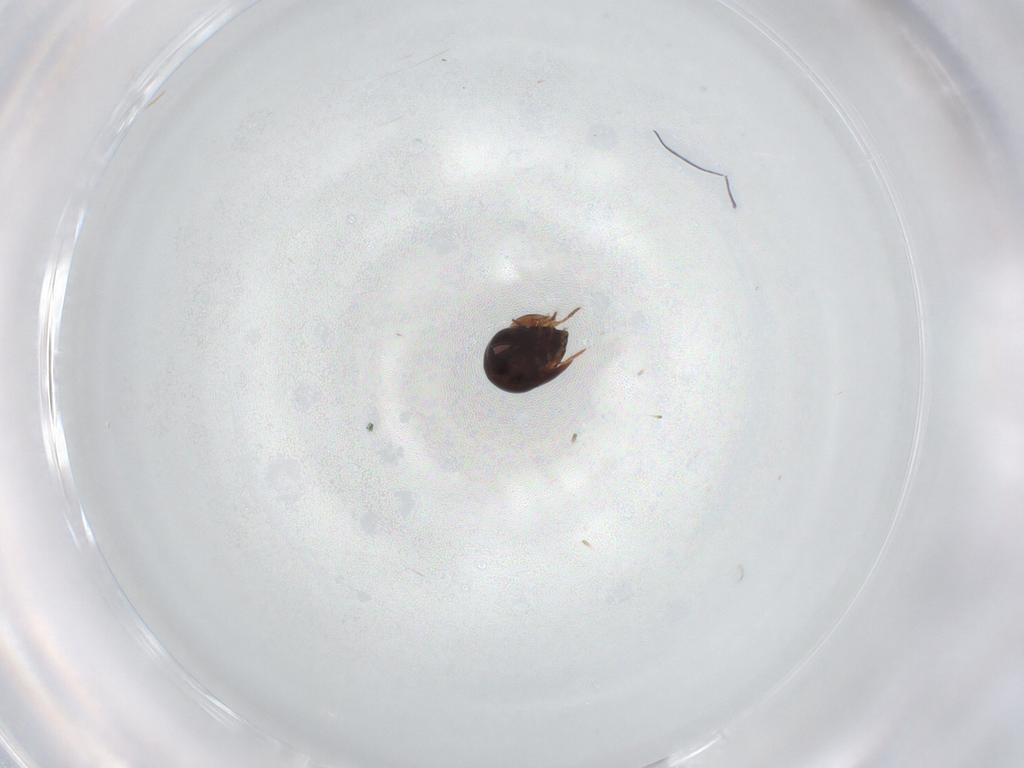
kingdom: Animalia
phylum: Arthropoda
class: Arachnida
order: Sarcoptiformes
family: Ceratozetidae
